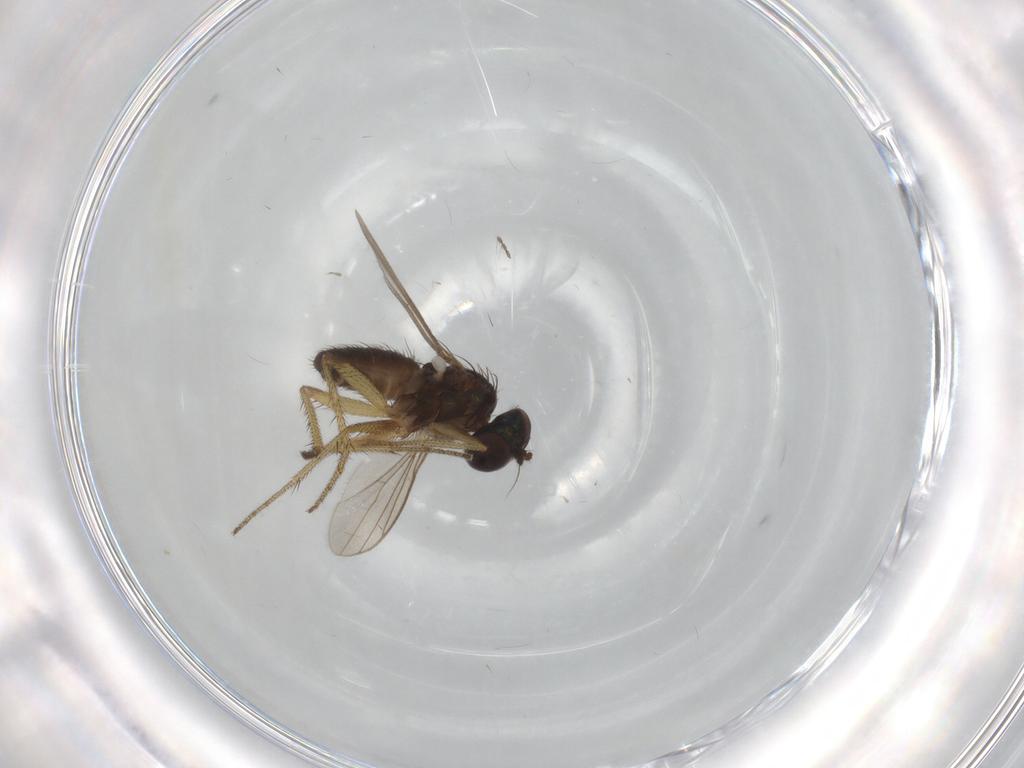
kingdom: Animalia
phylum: Arthropoda
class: Insecta
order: Diptera
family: Dolichopodidae
